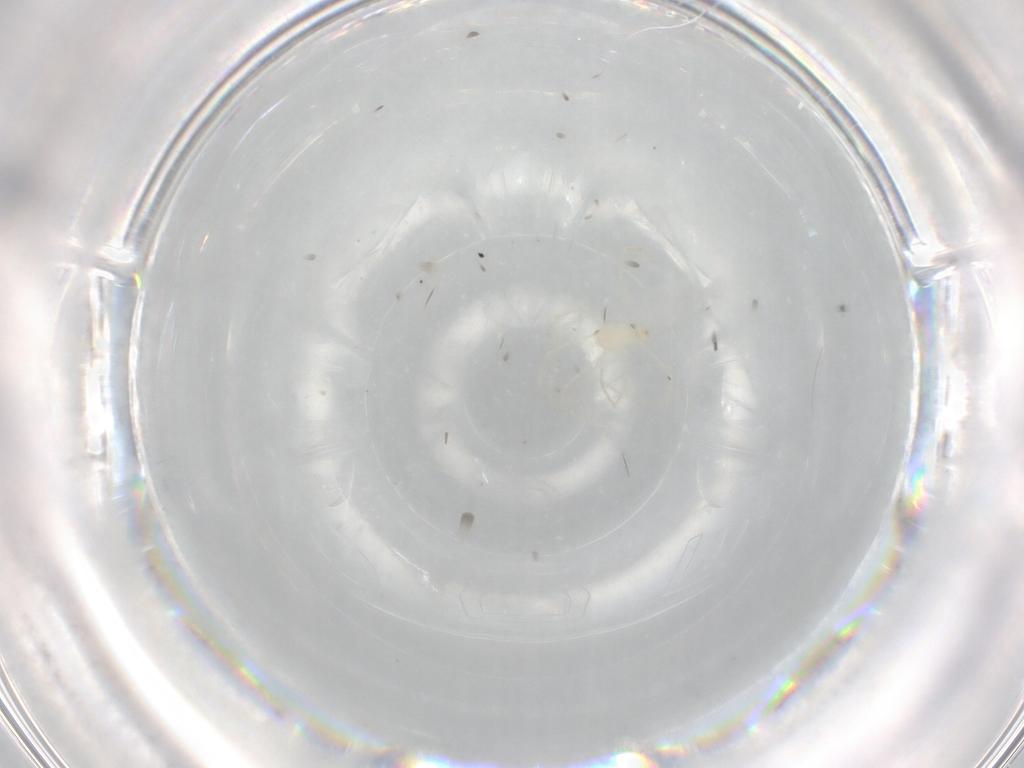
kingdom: Animalia
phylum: Arthropoda
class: Arachnida
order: Trombidiformes
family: Erythraeidae
